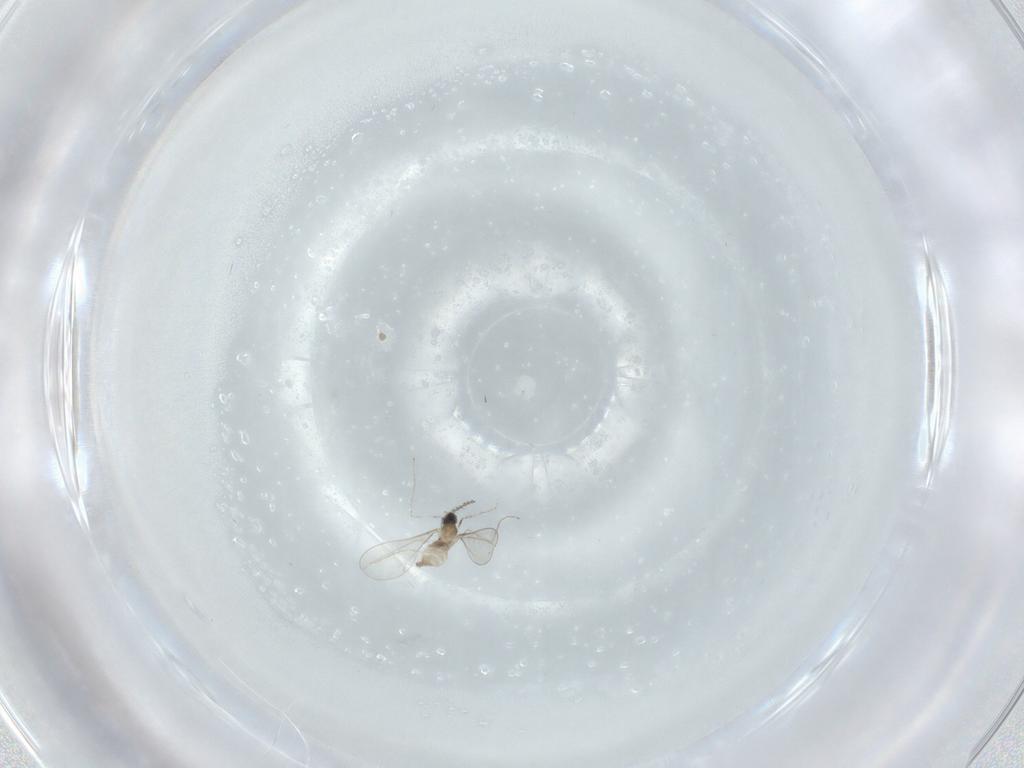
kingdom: Animalia
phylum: Arthropoda
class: Insecta
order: Diptera
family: Cecidomyiidae
